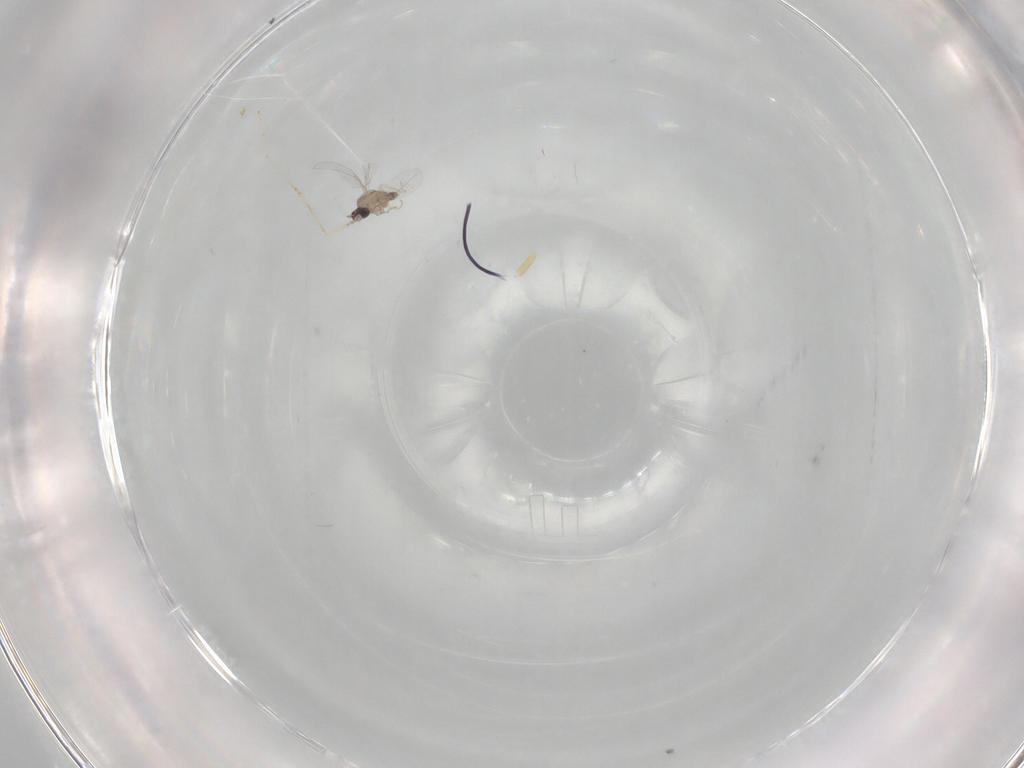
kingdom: Animalia
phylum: Arthropoda
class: Insecta
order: Diptera
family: Cecidomyiidae
